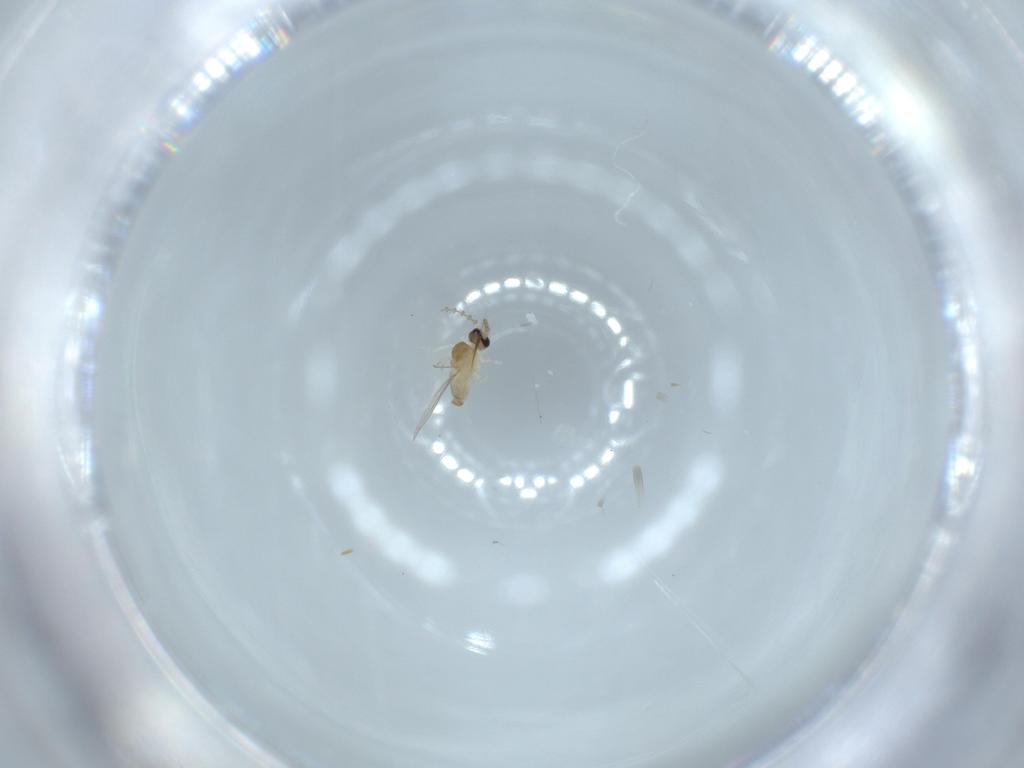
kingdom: Animalia
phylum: Arthropoda
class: Insecta
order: Diptera
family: Cecidomyiidae
